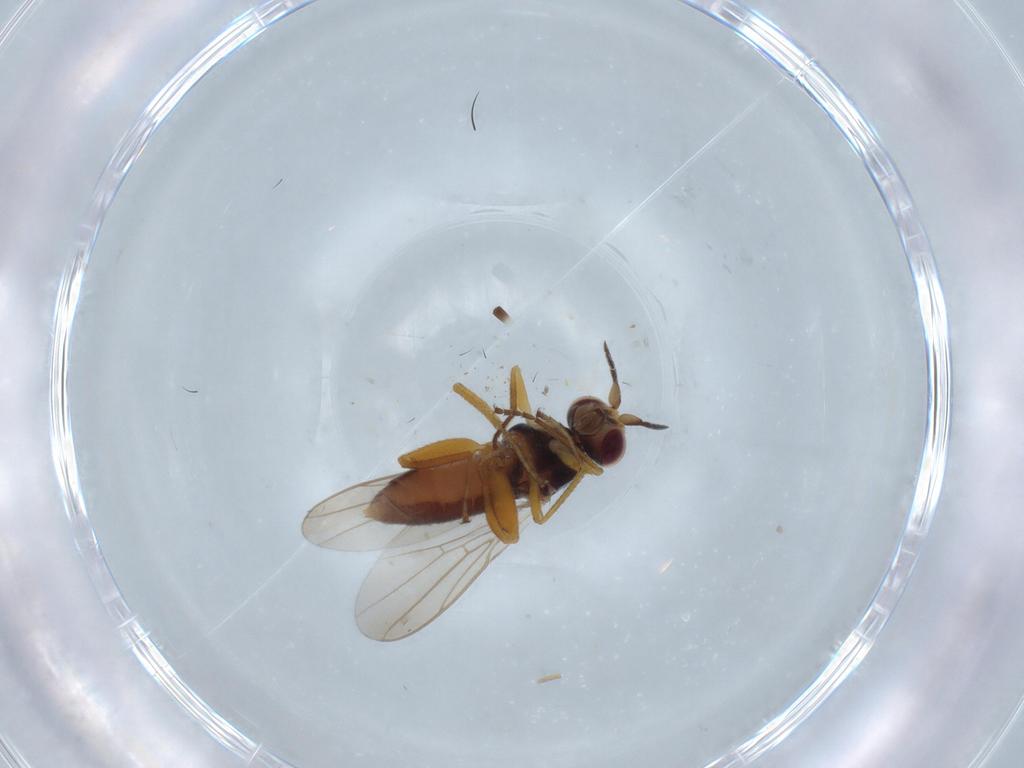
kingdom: Animalia
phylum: Arthropoda
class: Insecta
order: Diptera
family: Chloropidae
